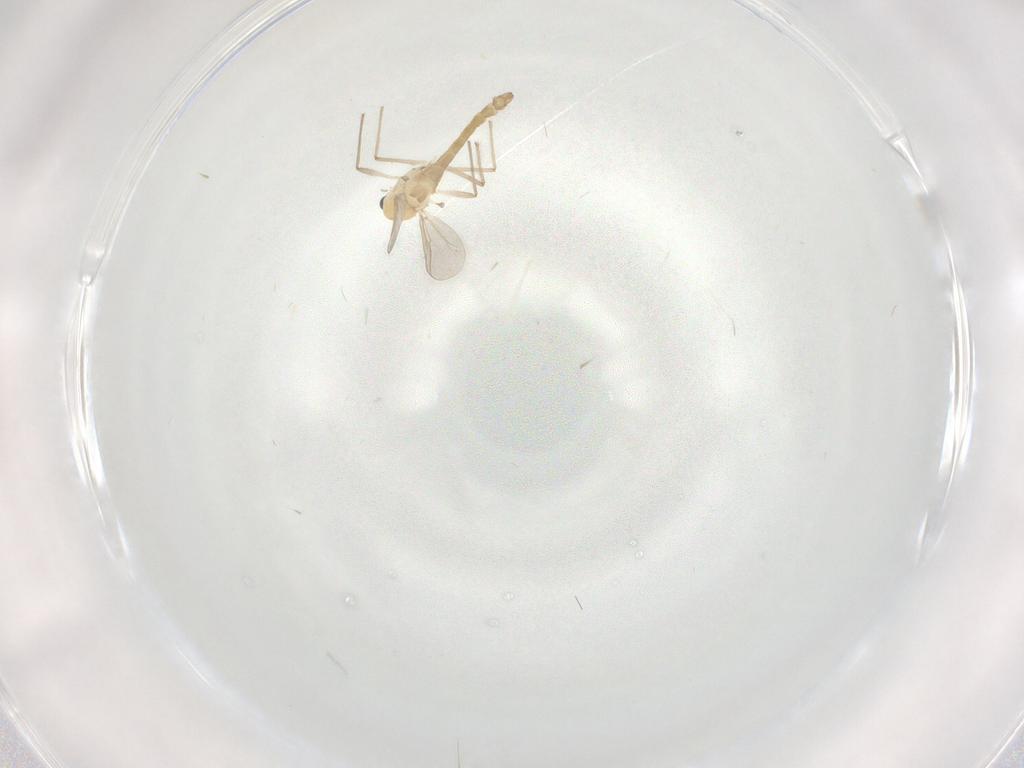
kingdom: Animalia
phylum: Arthropoda
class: Insecta
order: Diptera
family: Chironomidae
